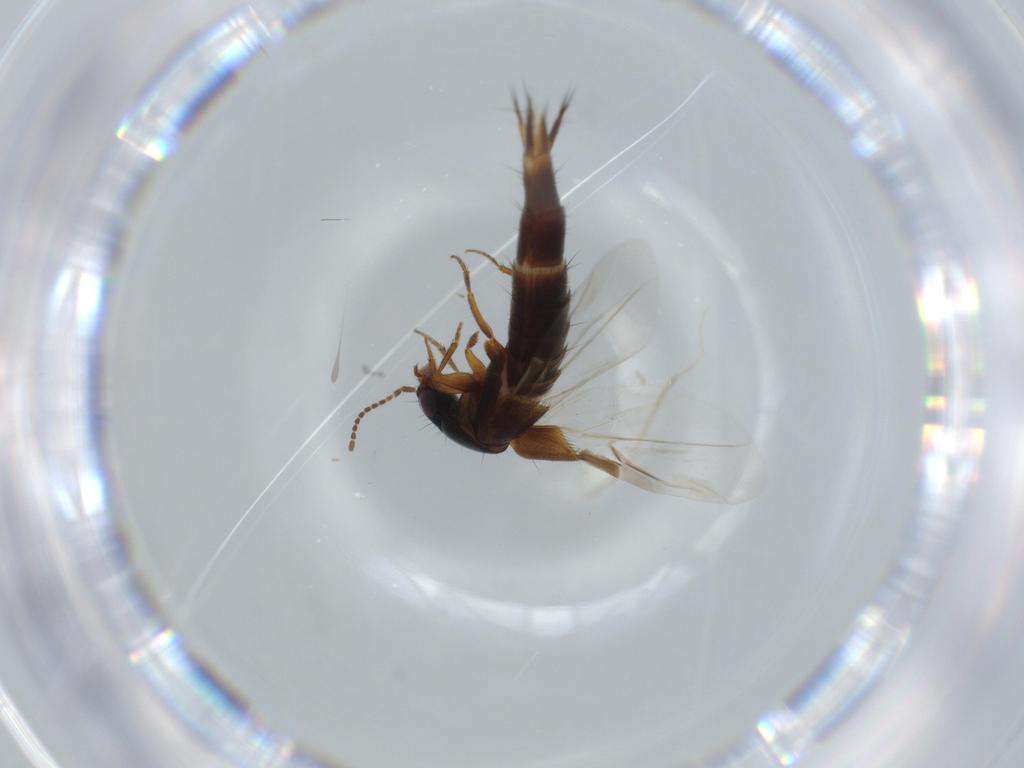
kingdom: Animalia
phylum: Arthropoda
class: Insecta
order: Coleoptera
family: Staphylinidae
